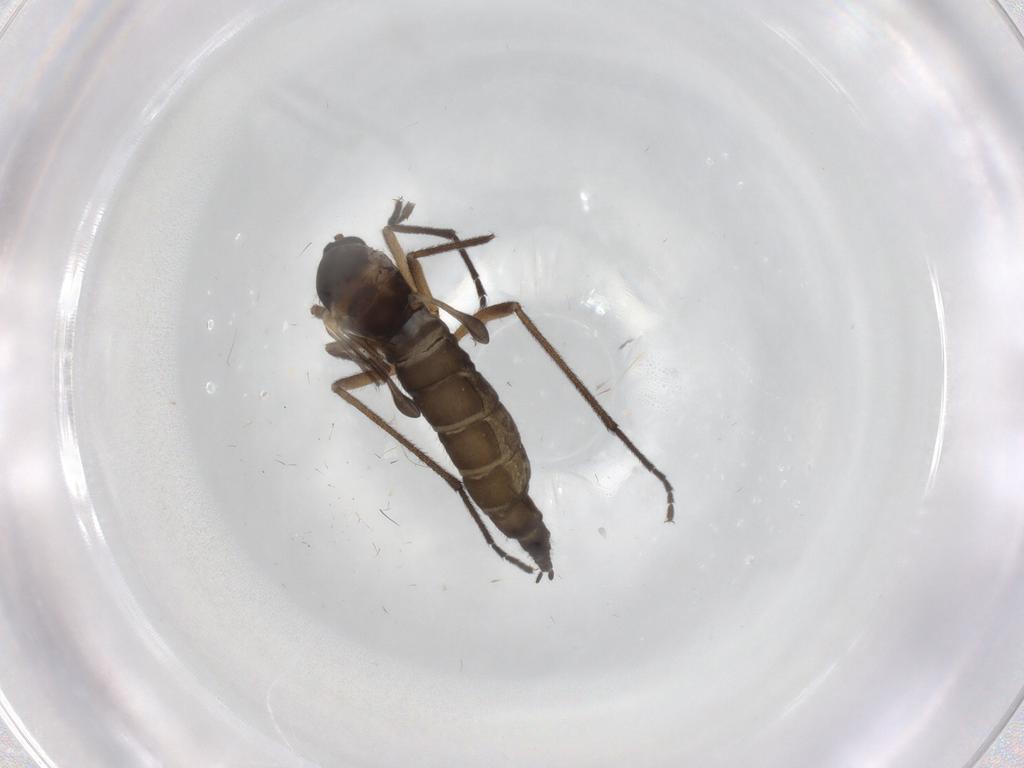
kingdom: Animalia
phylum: Arthropoda
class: Insecta
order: Diptera
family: Sciaridae
